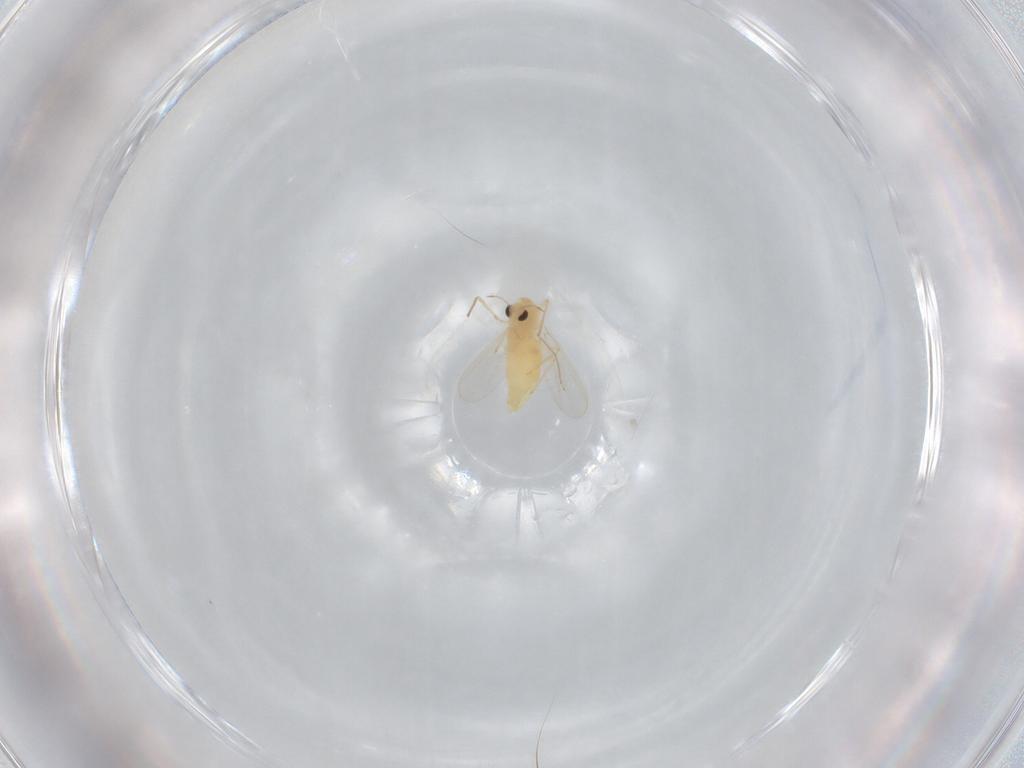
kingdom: Animalia
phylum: Arthropoda
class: Insecta
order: Diptera
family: Chironomidae
